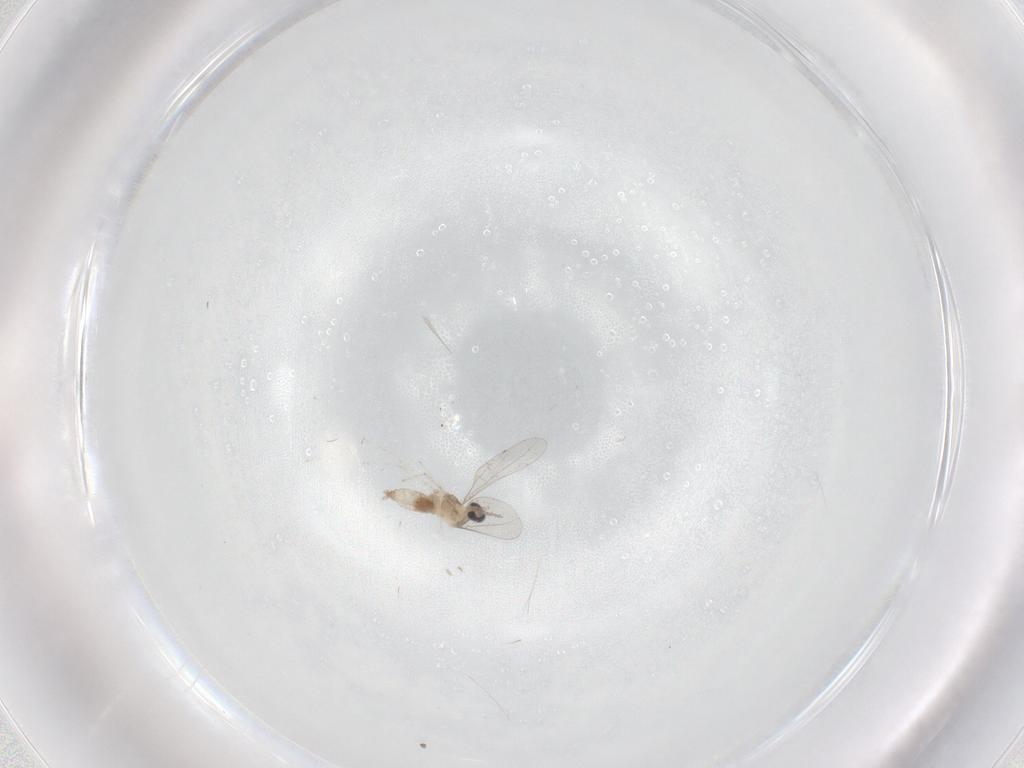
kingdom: Animalia
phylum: Arthropoda
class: Insecta
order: Diptera
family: Cecidomyiidae
